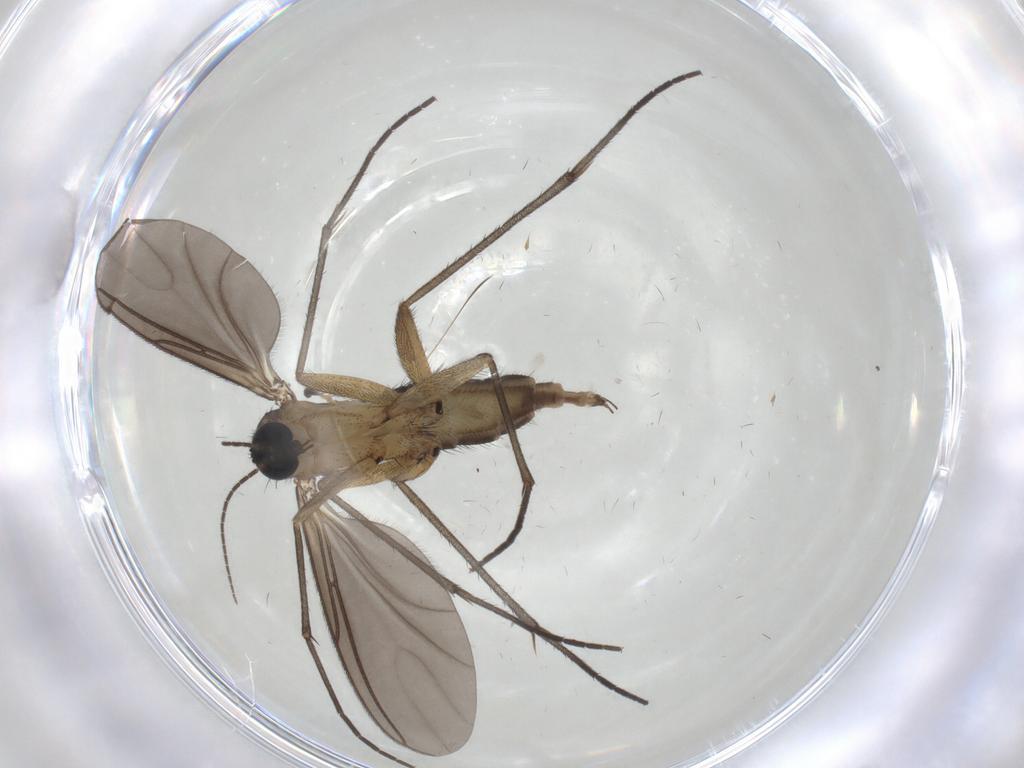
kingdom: Animalia
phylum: Arthropoda
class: Insecta
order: Diptera
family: Sciaridae
